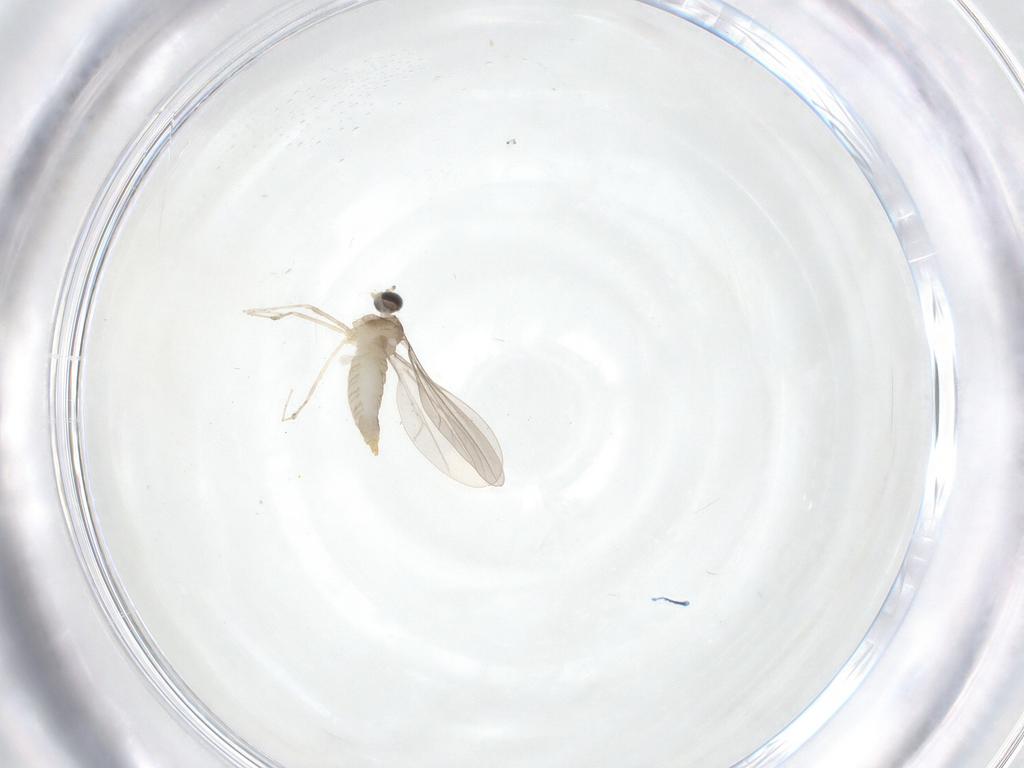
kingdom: Animalia
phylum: Arthropoda
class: Insecta
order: Diptera
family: Cecidomyiidae
